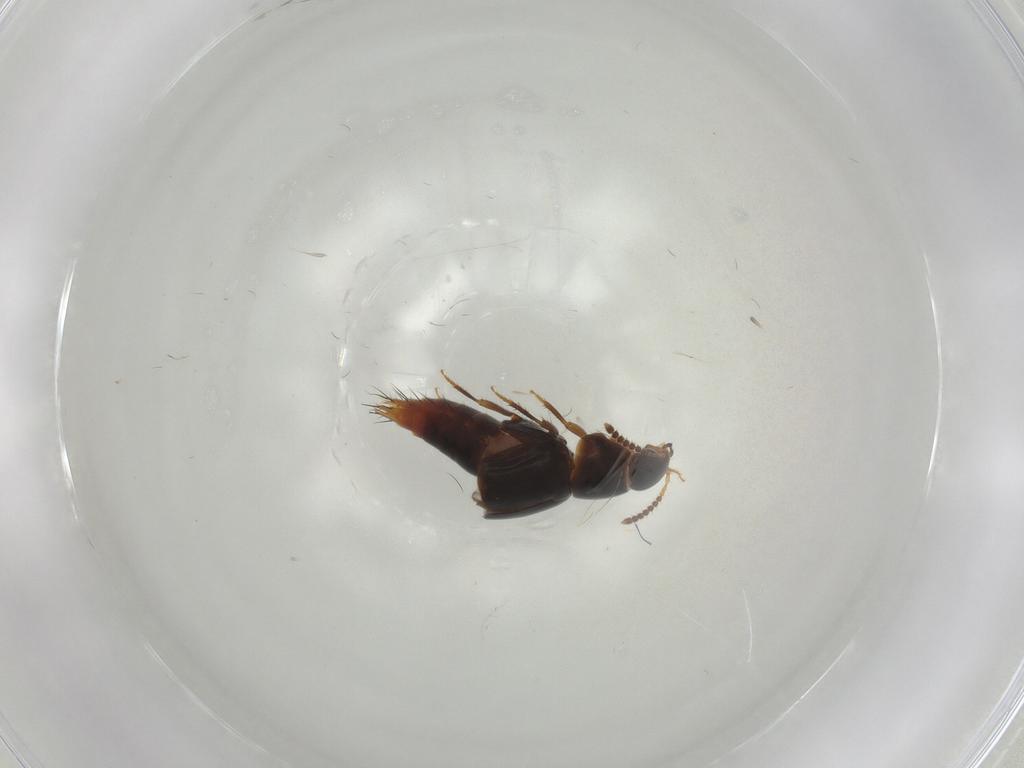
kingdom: Animalia
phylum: Arthropoda
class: Insecta
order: Coleoptera
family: Staphylinidae
